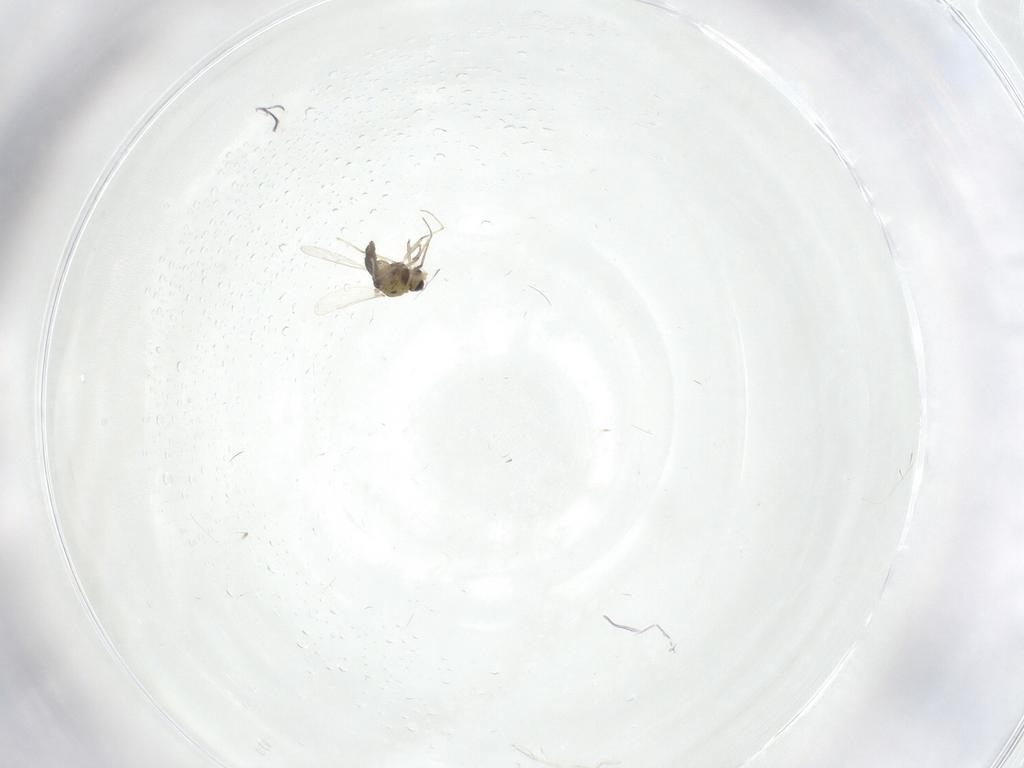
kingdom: Animalia
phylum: Arthropoda
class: Insecta
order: Diptera
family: Chironomidae
